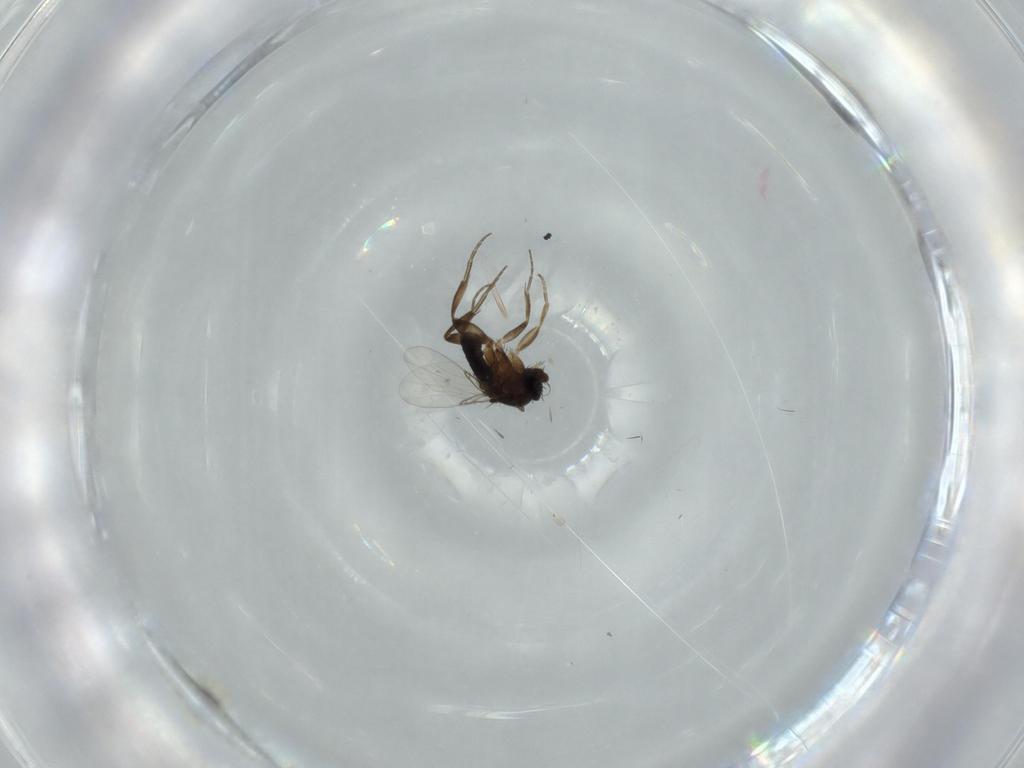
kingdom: Animalia
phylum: Arthropoda
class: Insecta
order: Diptera
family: Phoridae
